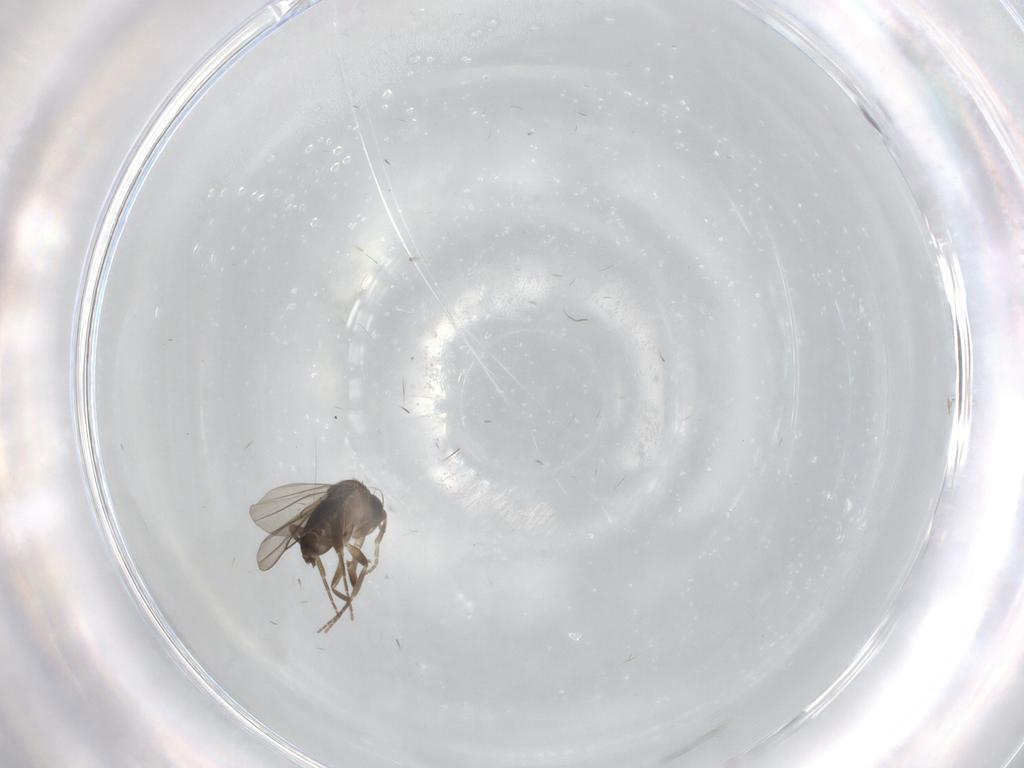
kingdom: Animalia
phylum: Arthropoda
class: Insecta
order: Diptera
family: Phoridae
